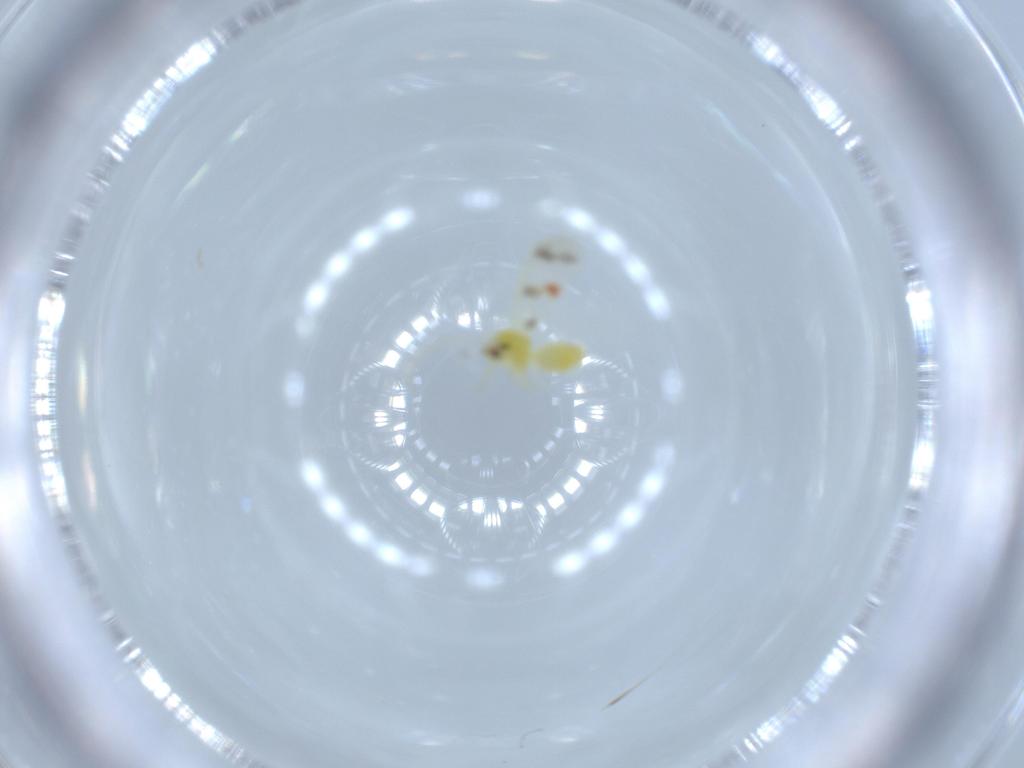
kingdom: Animalia
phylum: Arthropoda
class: Insecta
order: Hemiptera
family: Aleyrodidae
